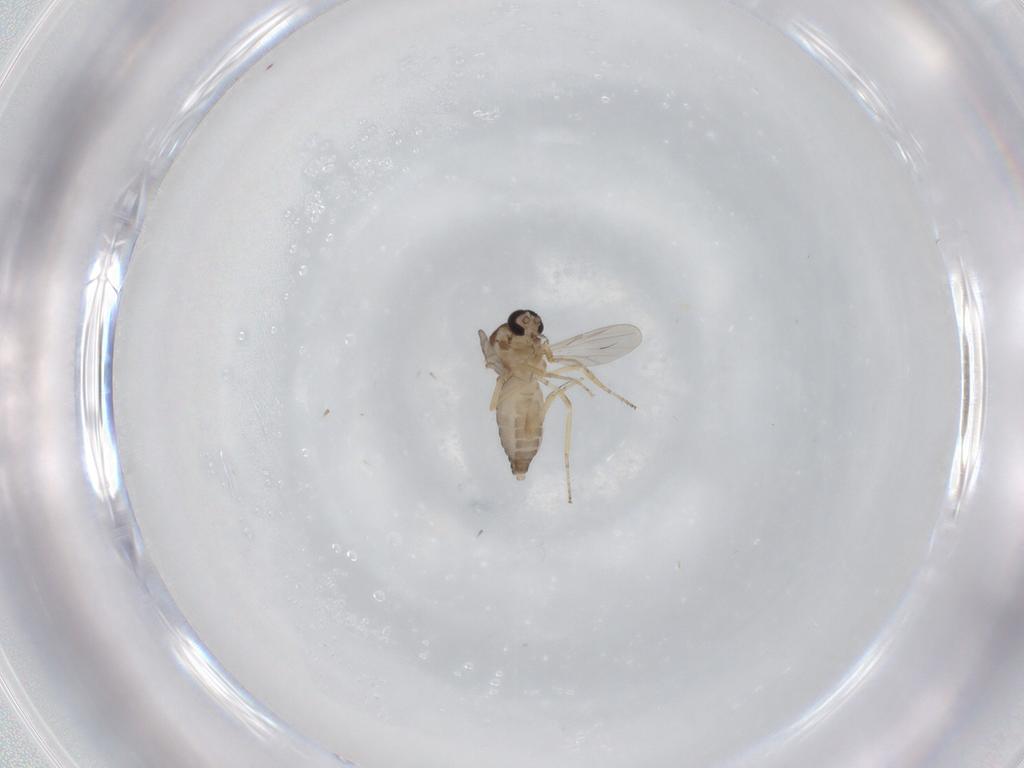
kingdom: Animalia
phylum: Arthropoda
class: Insecta
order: Diptera
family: Ceratopogonidae
